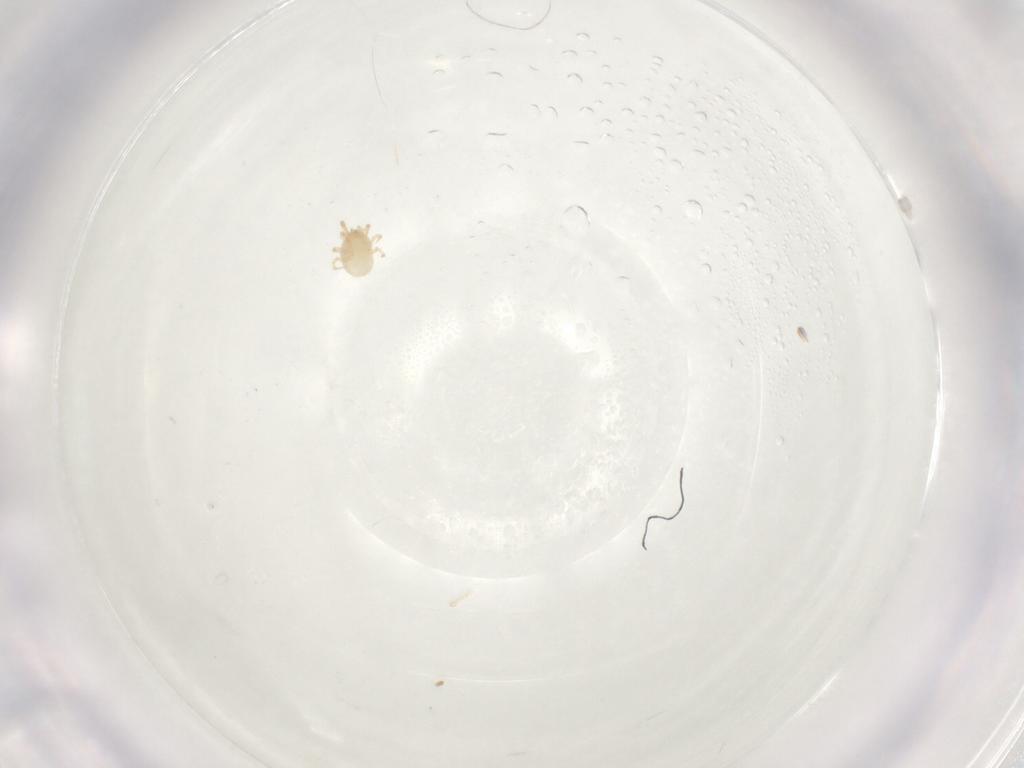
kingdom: Animalia
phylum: Arthropoda
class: Arachnida
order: Mesostigmata
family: Phytoseiidae
